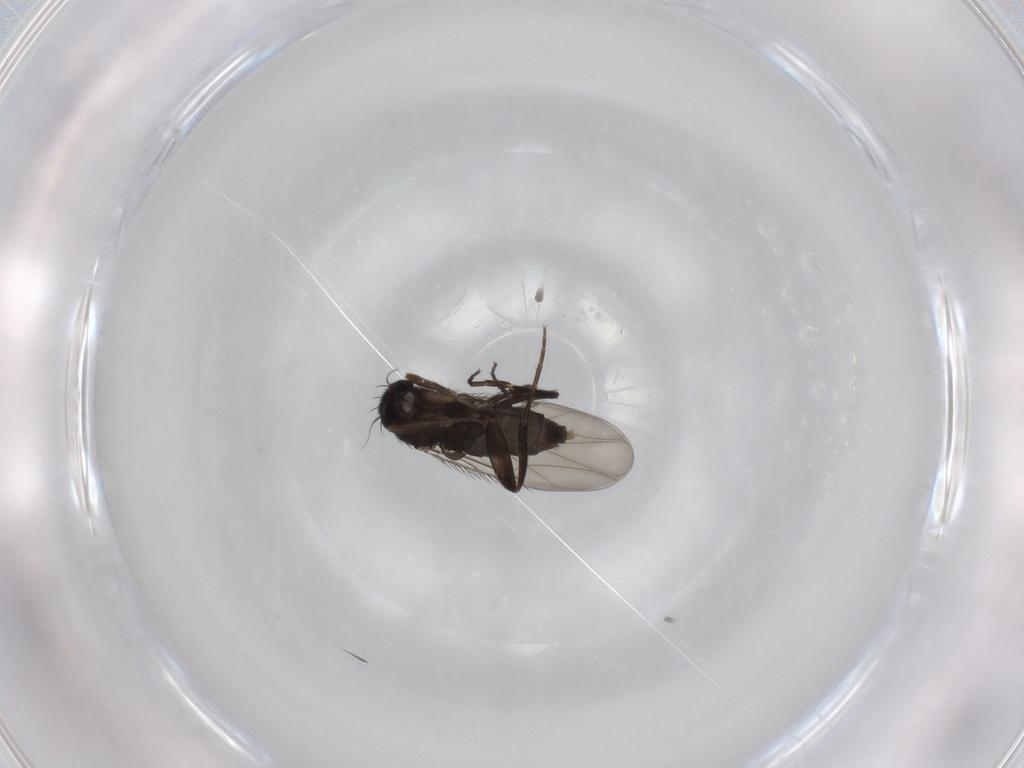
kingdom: Animalia
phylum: Arthropoda
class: Insecta
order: Diptera
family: Phoridae
